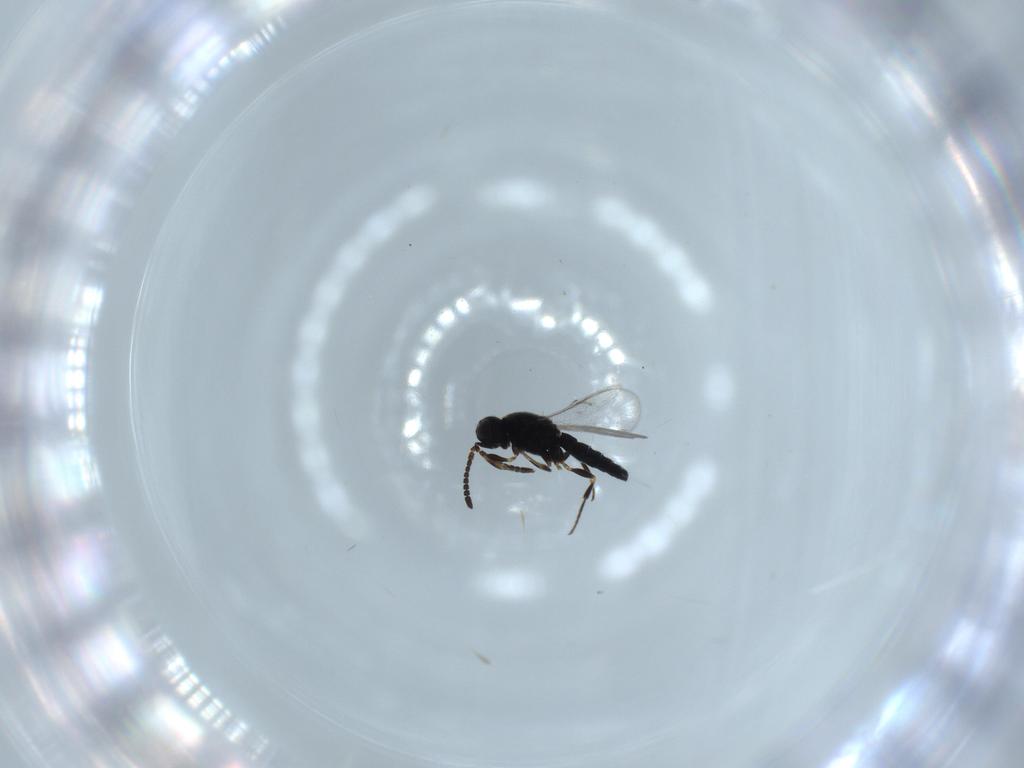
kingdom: Animalia
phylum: Arthropoda
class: Insecta
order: Hymenoptera
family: Scelionidae
